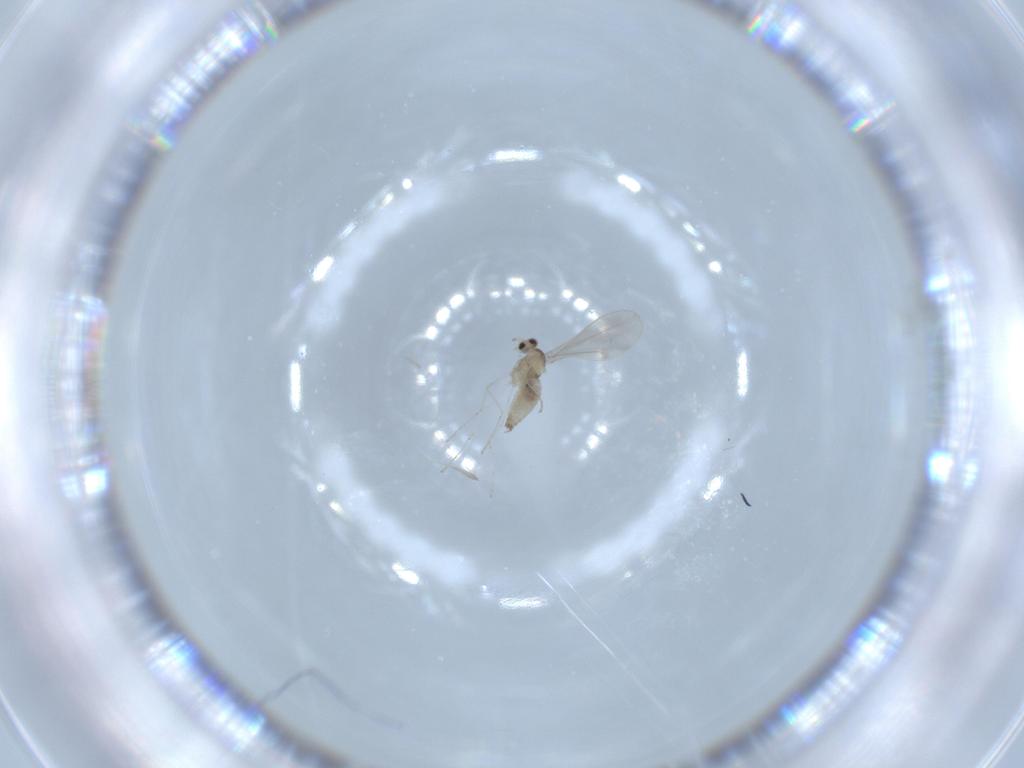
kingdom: Animalia
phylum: Arthropoda
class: Insecta
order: Diptera
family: Cecidomyiidae
